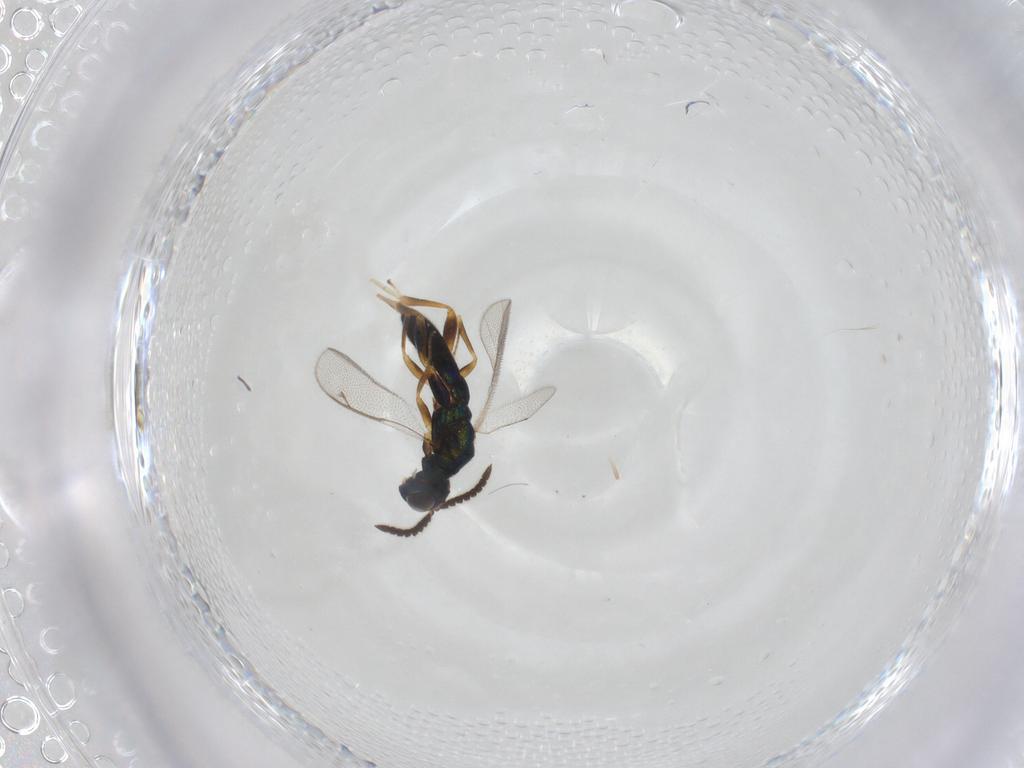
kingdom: Animalia
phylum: Arthropoda
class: Insecta
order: Hymenoptera
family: Cleonyminae
